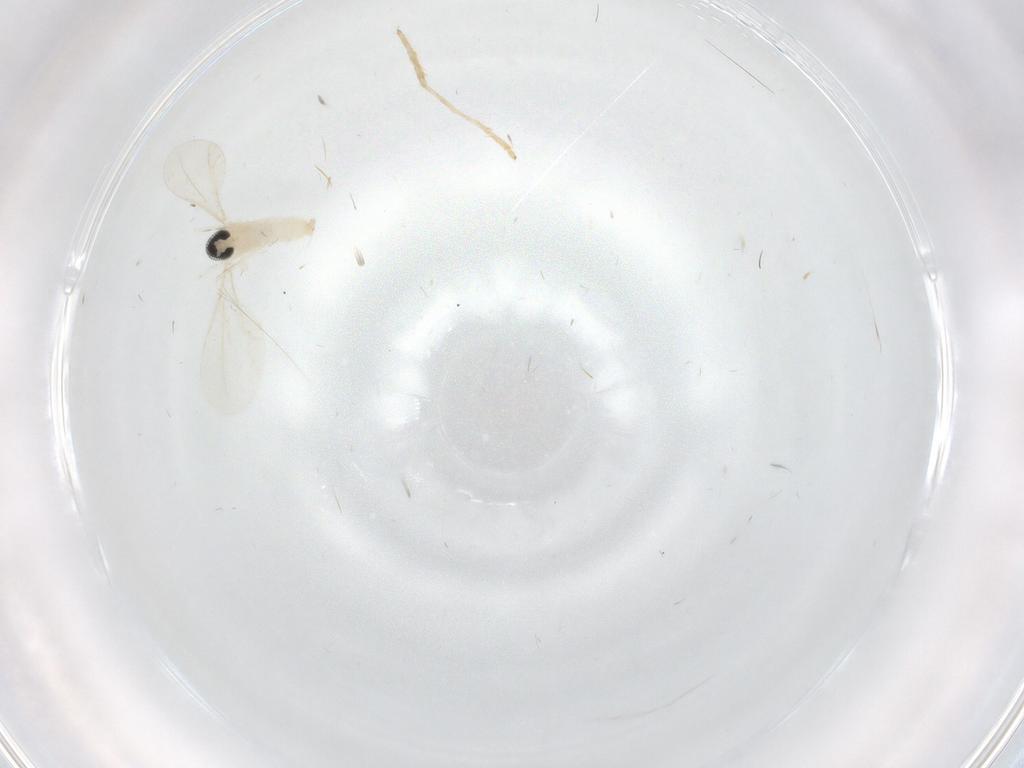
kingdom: Animalia
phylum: Arthropoda
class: Insecta
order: Diptera
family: Cecidomyiidae
